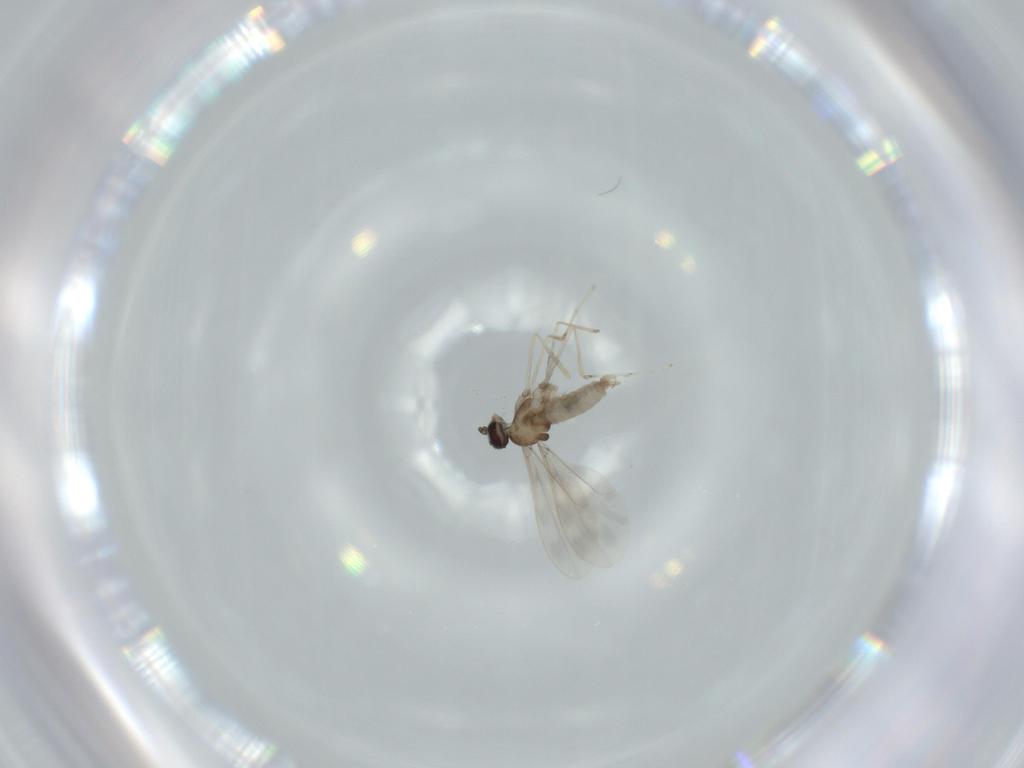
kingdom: Animalia
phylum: Arthropoda
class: Insecta
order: Diptera
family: Cecidomyiidae
